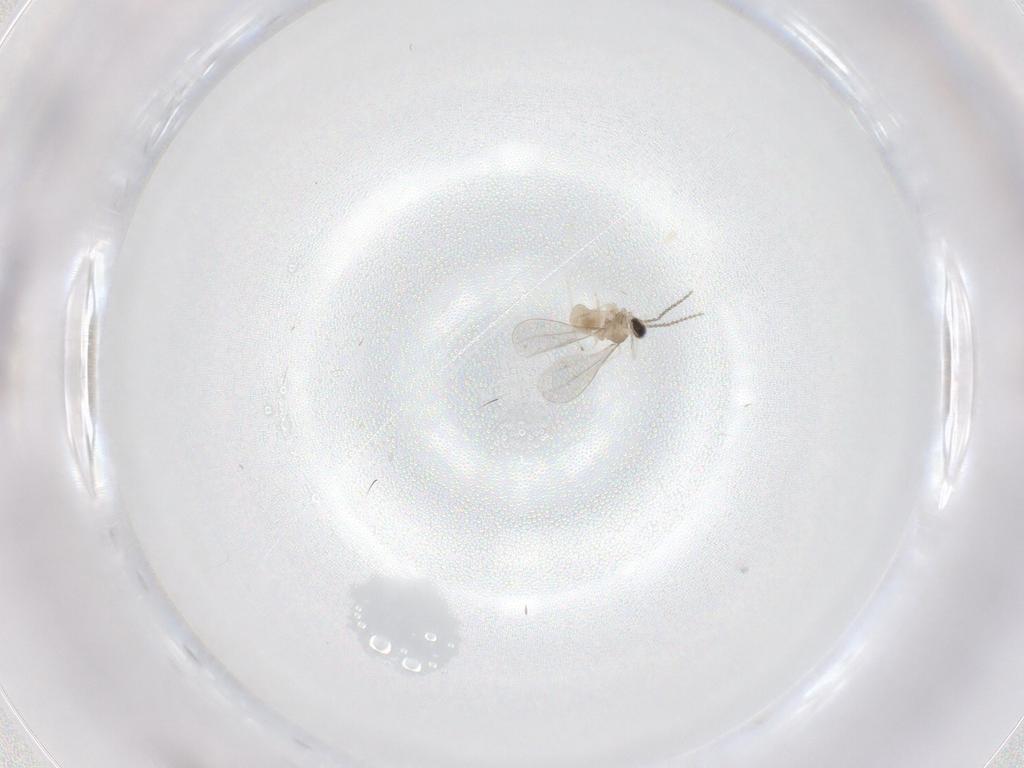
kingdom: Animalia
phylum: Arthropoda
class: Insecta
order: Diptera
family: Cecidomyiidae
